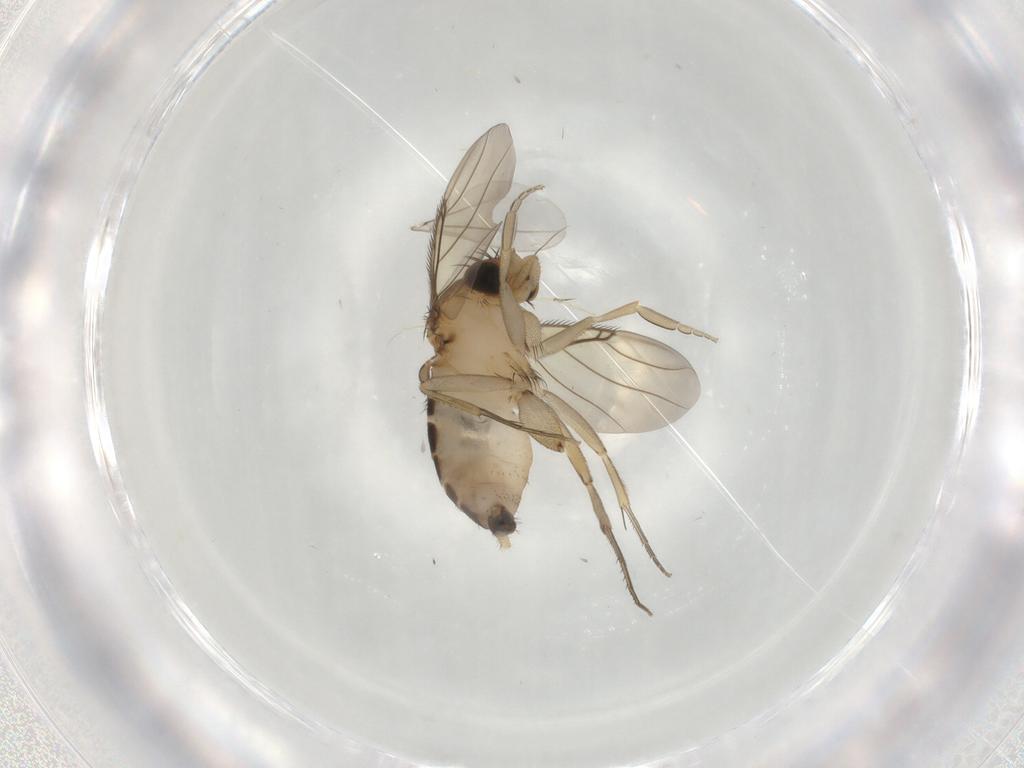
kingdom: Animalia
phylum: Arthropoda
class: Insecta
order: Diptera
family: Phoridae
